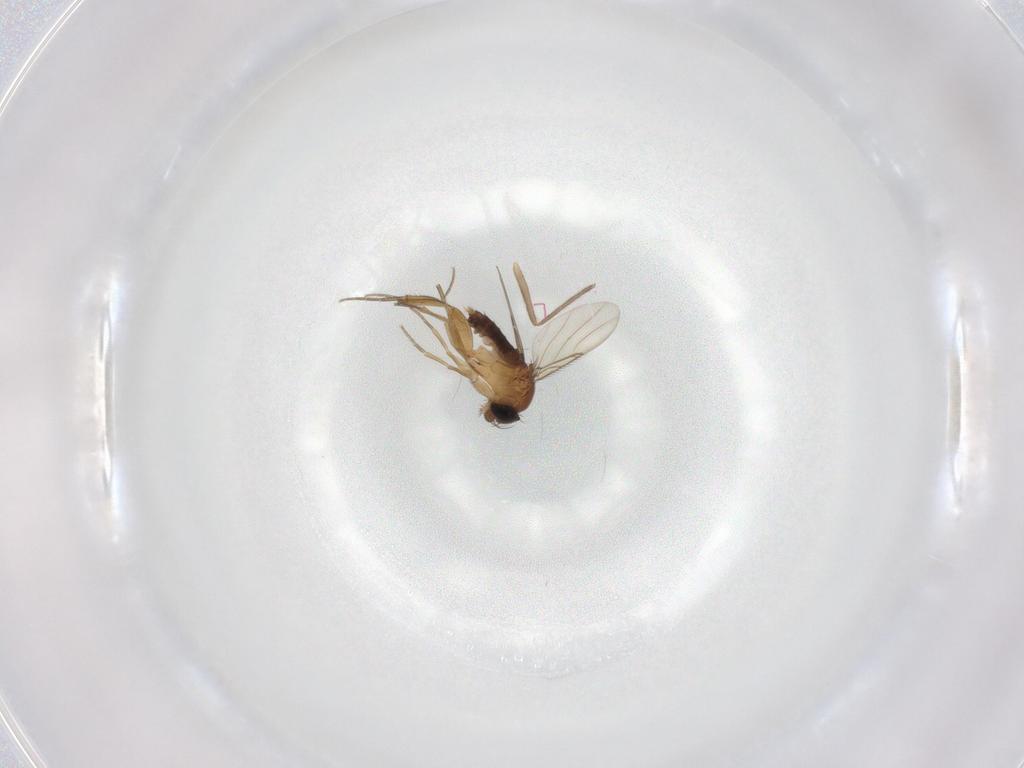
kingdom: Animalia
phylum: Arthropoda
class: Insecta
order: Diptera
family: Chironomidae
